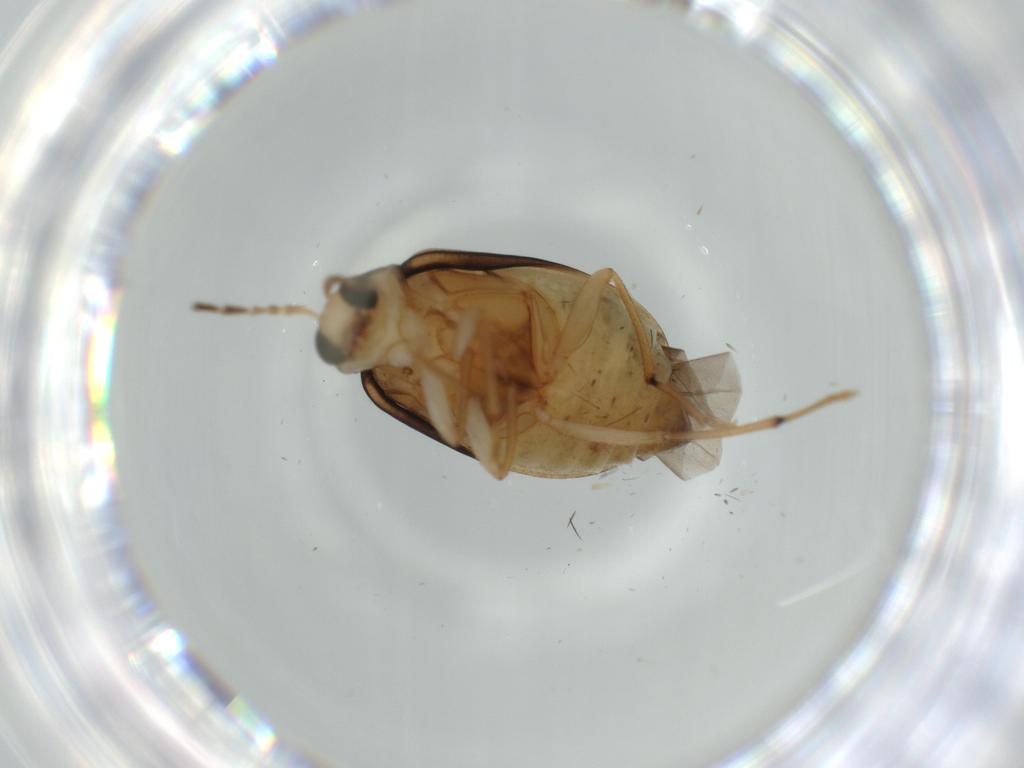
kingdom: Animalia
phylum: Arthropoda
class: Insecta
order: Coleoptera
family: Chrysomelidae
